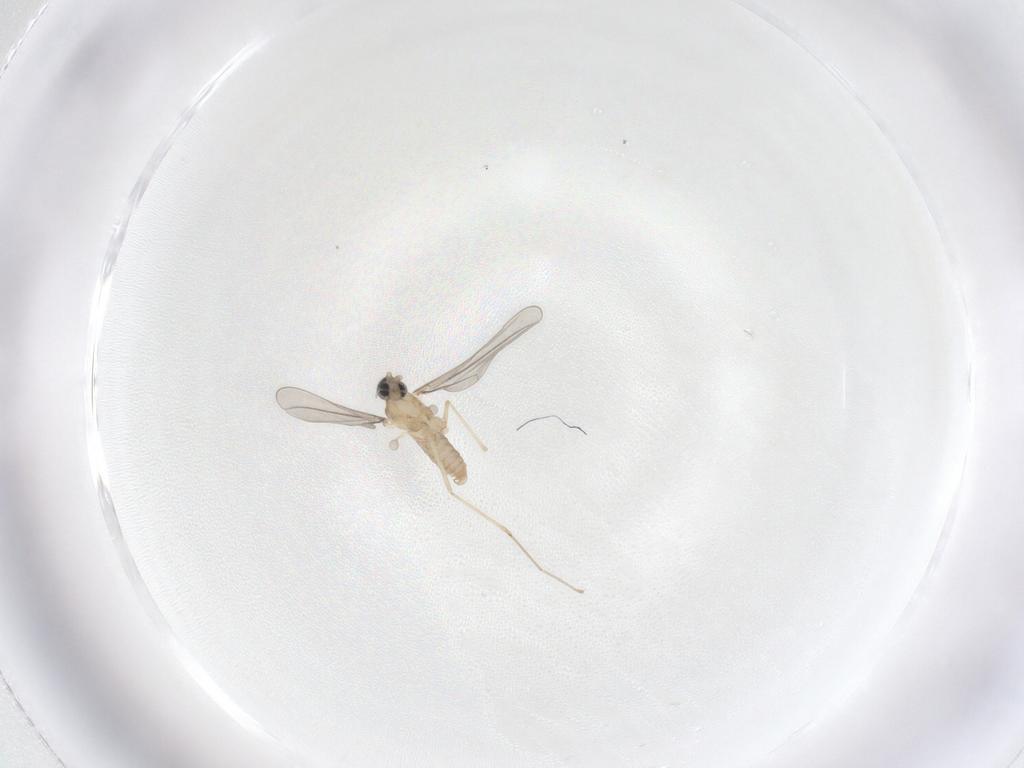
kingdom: Animalia
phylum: Arthropoda
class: Insecta
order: Diptera
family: Cecidomyiidae
